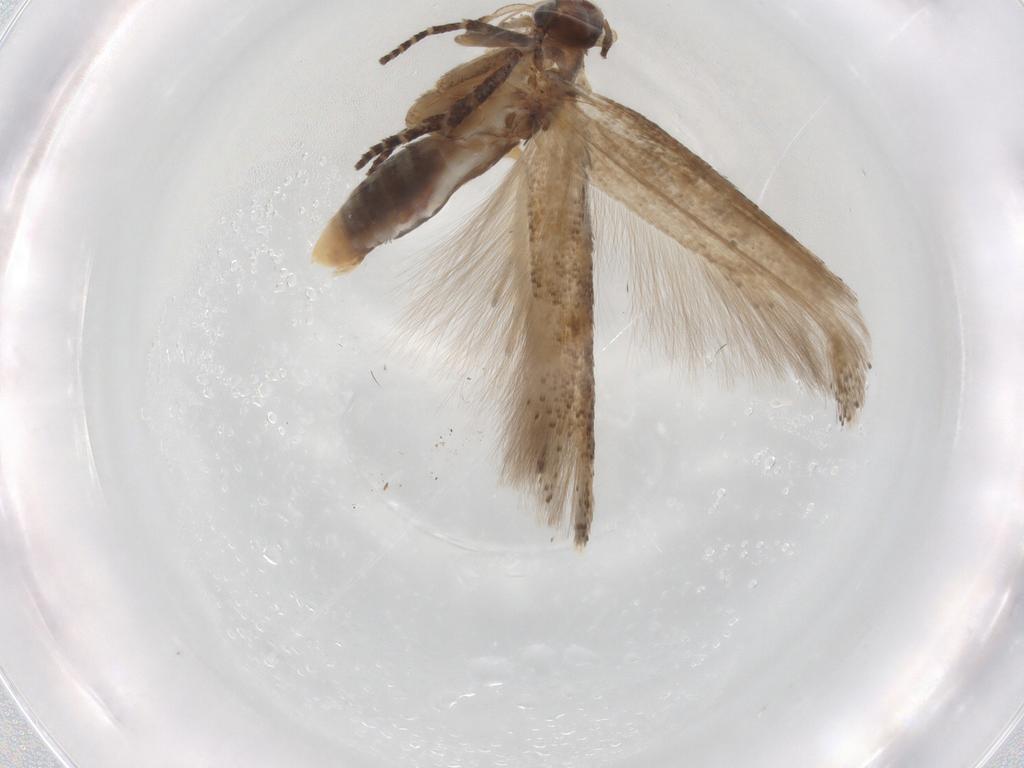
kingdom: Animalia
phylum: Arthropoda
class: Insecta
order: Lepidoptera
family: Gelechiidae
